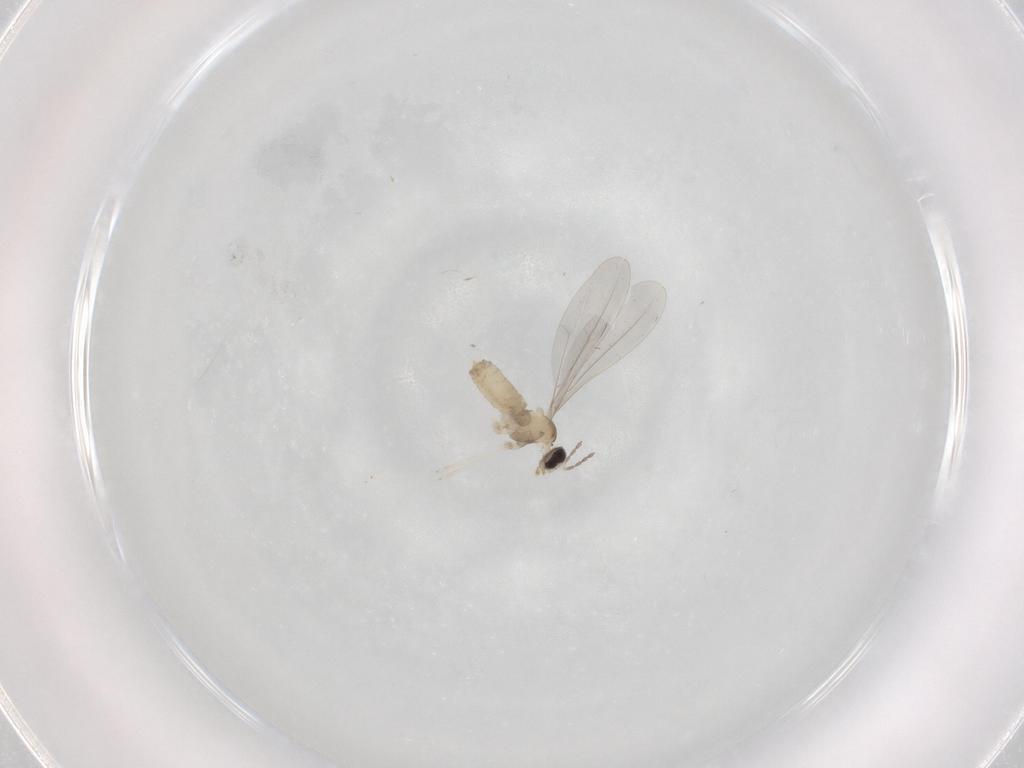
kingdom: Animalia
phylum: Arthropoda
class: Insecta
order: Diptera
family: Cecidomyiidae
